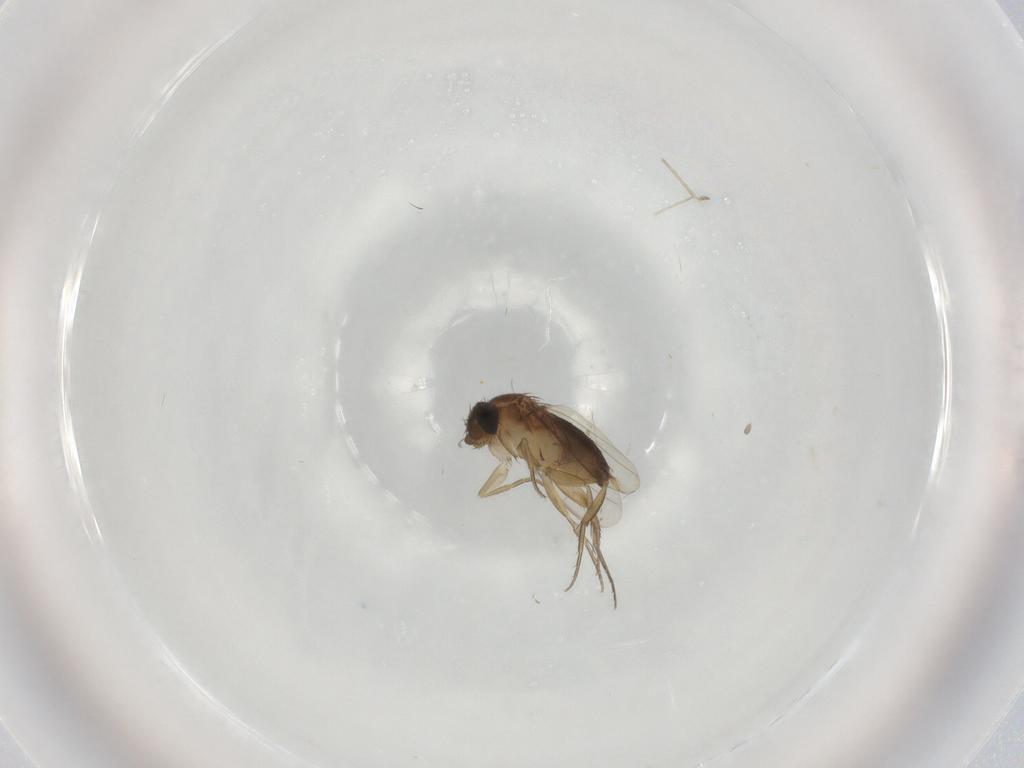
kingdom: Animalia
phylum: Arthropoda
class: Insecta
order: Diptera
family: Phoridae
